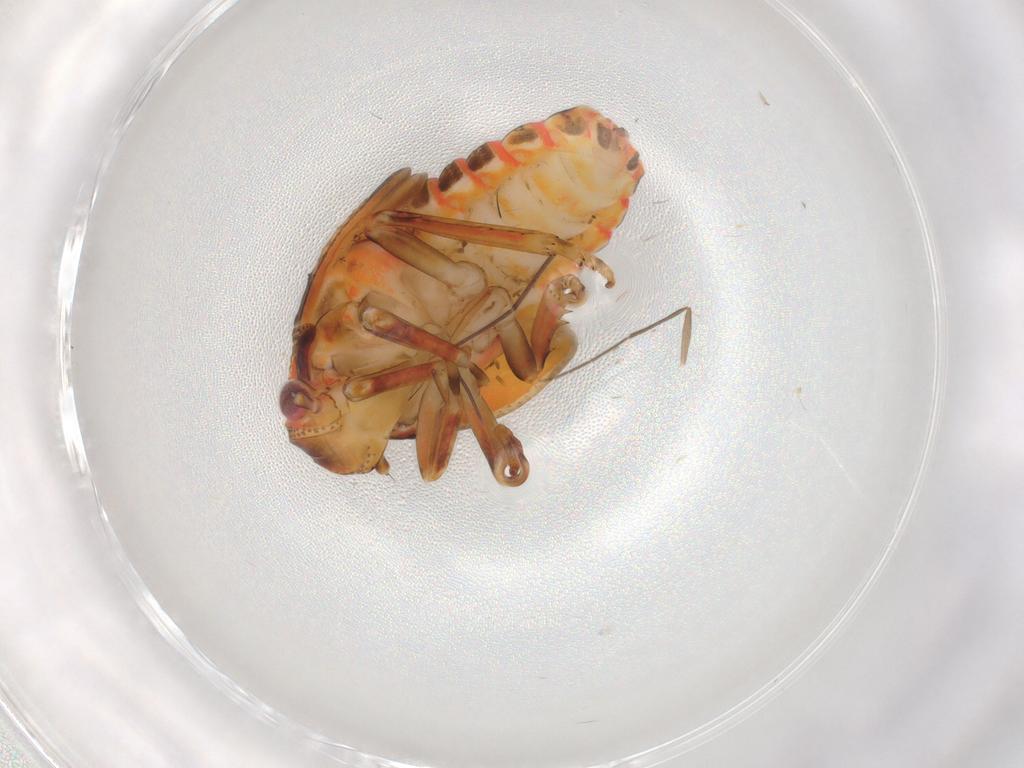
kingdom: Animalia
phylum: Arthropoda
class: Insecta
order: Hemiptera
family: Flatidae
